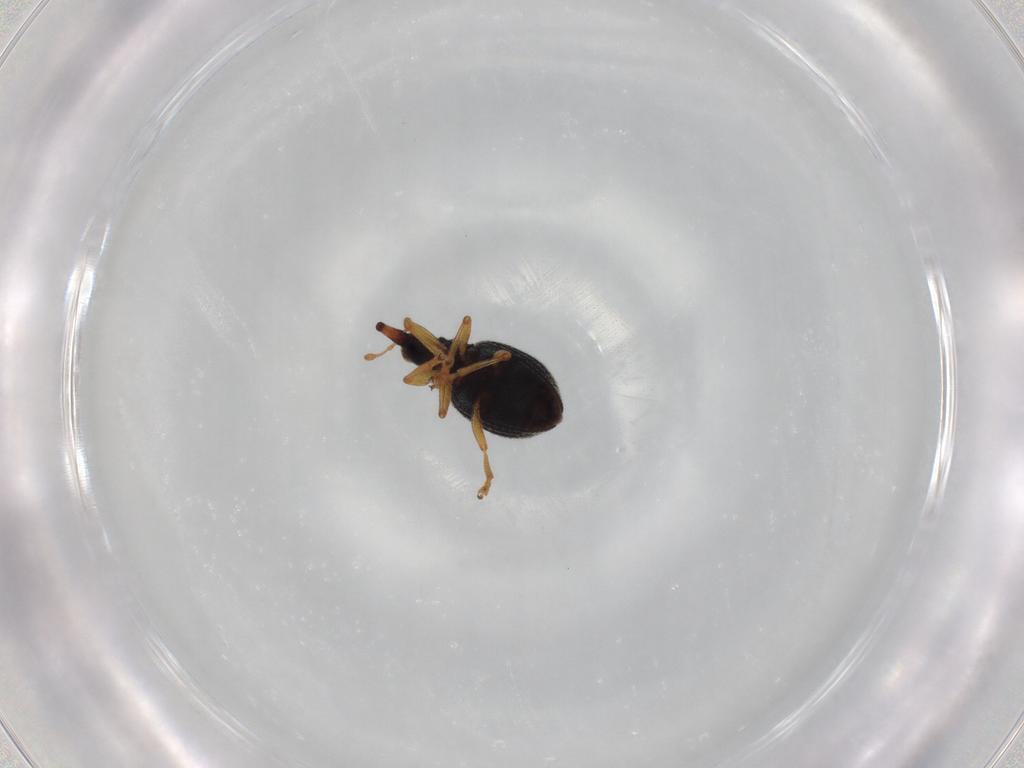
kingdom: Animalia
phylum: Arthropoda
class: Insecta
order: Coleoptera
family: Brentidae
